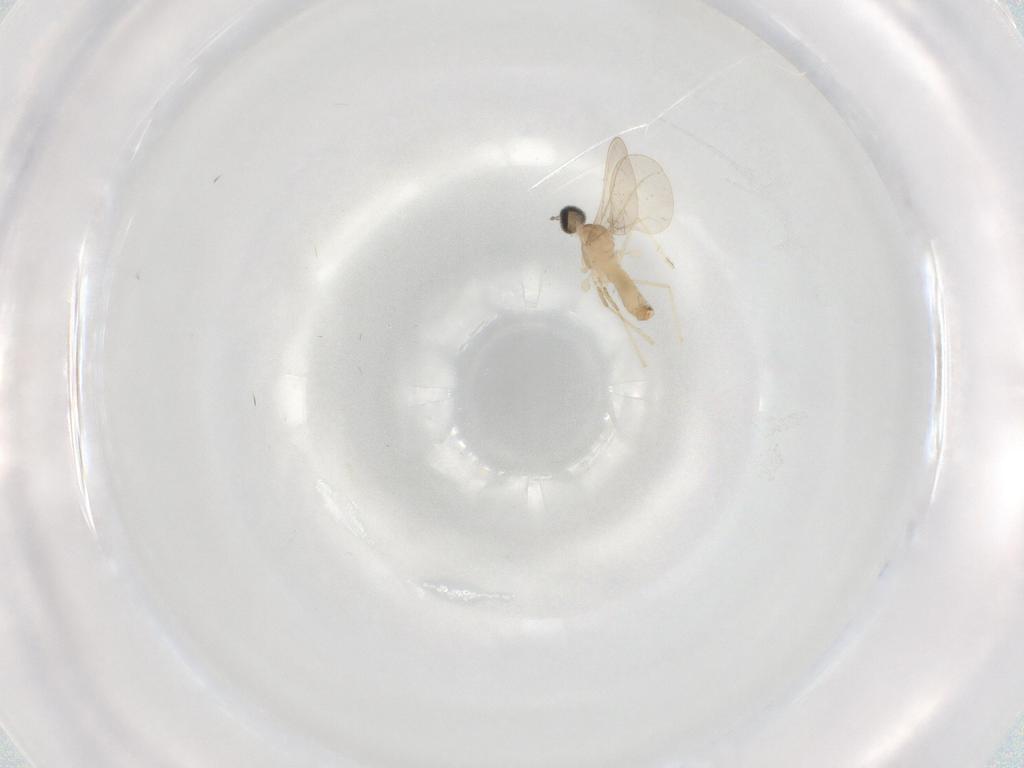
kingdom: Animalia
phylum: Arthropoda
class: Insecta
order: Diptera
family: Cecidomyiidae
